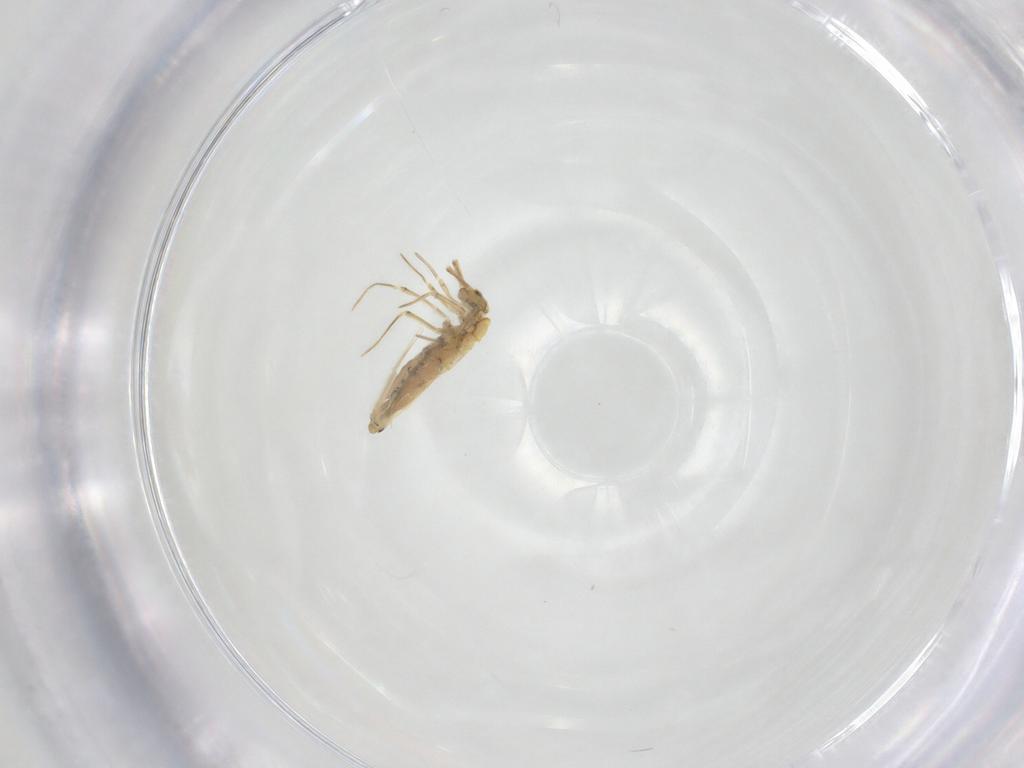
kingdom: Animalia
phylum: Arthropoda
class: Collembola
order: Entomobryomorpha
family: Entomobryidae
